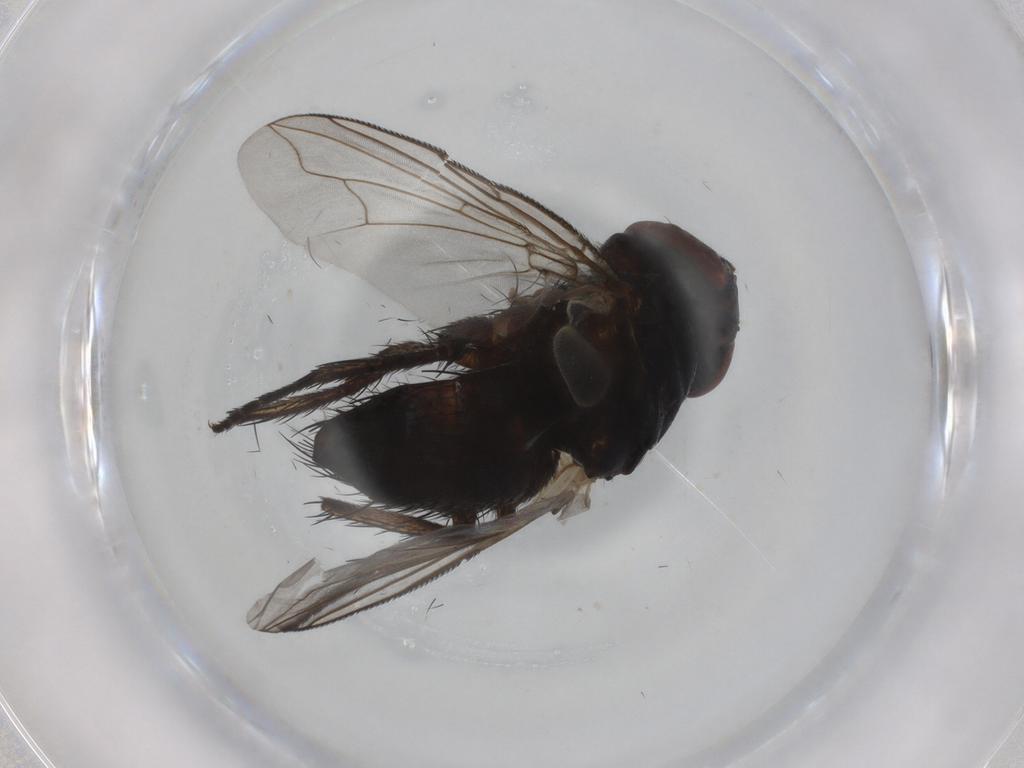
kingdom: Animalia
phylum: Arthropoda
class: Insecta
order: Diptera
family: Tachinidae
